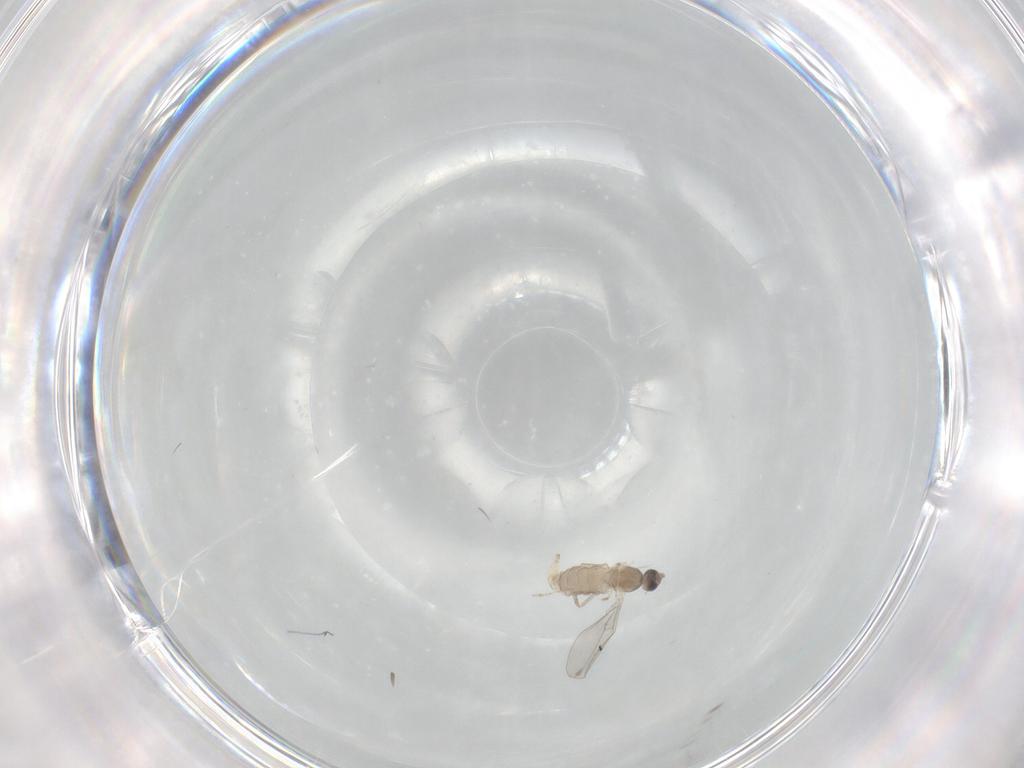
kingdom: Animalia
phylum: Arthropoda
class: Insecta
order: Diptera
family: Cecidomyiidae
